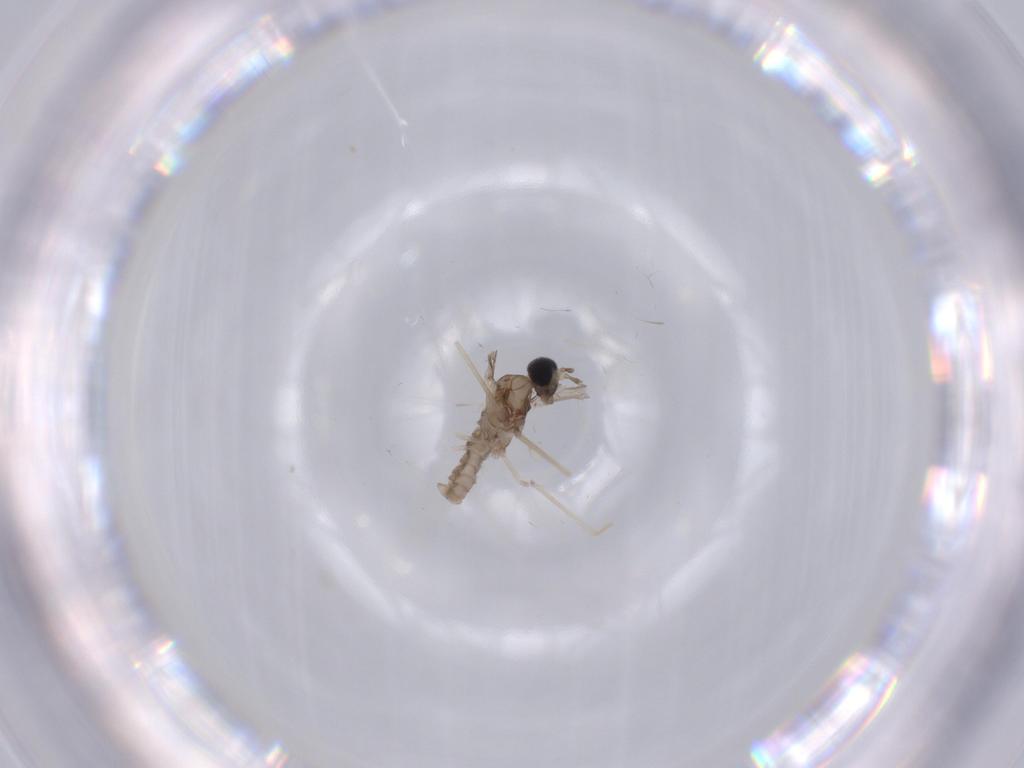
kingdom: Animalia
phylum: Arthropoda
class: Insecta
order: Diptera
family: Cecidomyiidae
